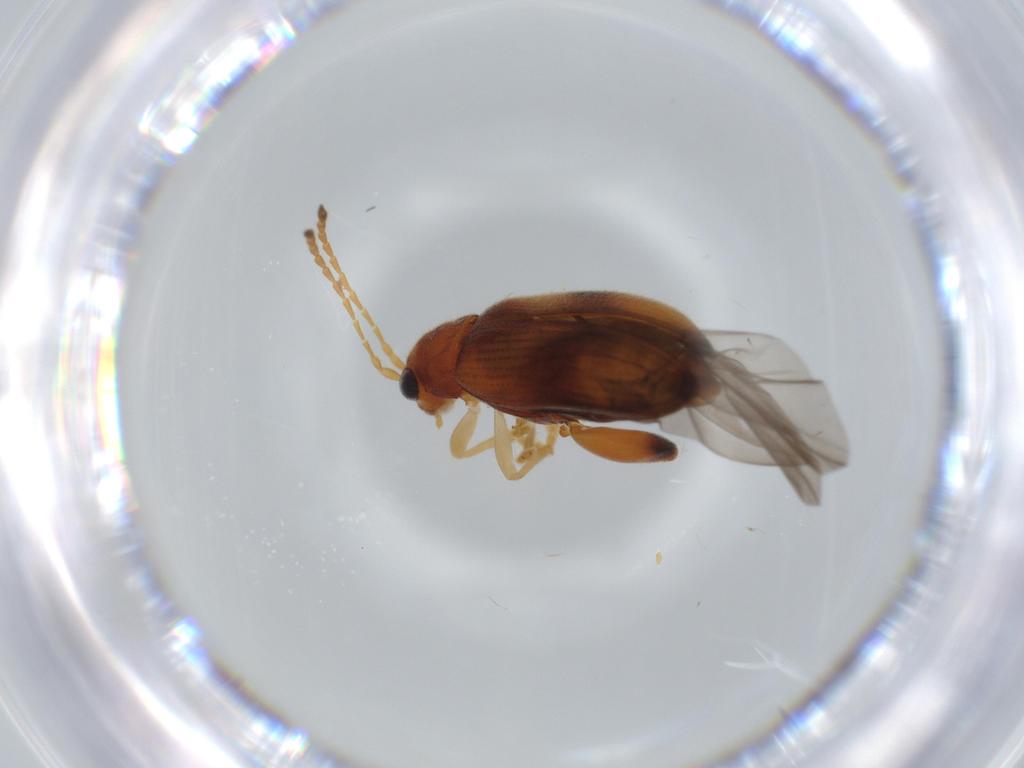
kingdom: Animalia
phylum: Arthropoda
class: Insecta
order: Coleoptera
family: Chrysomelidae
